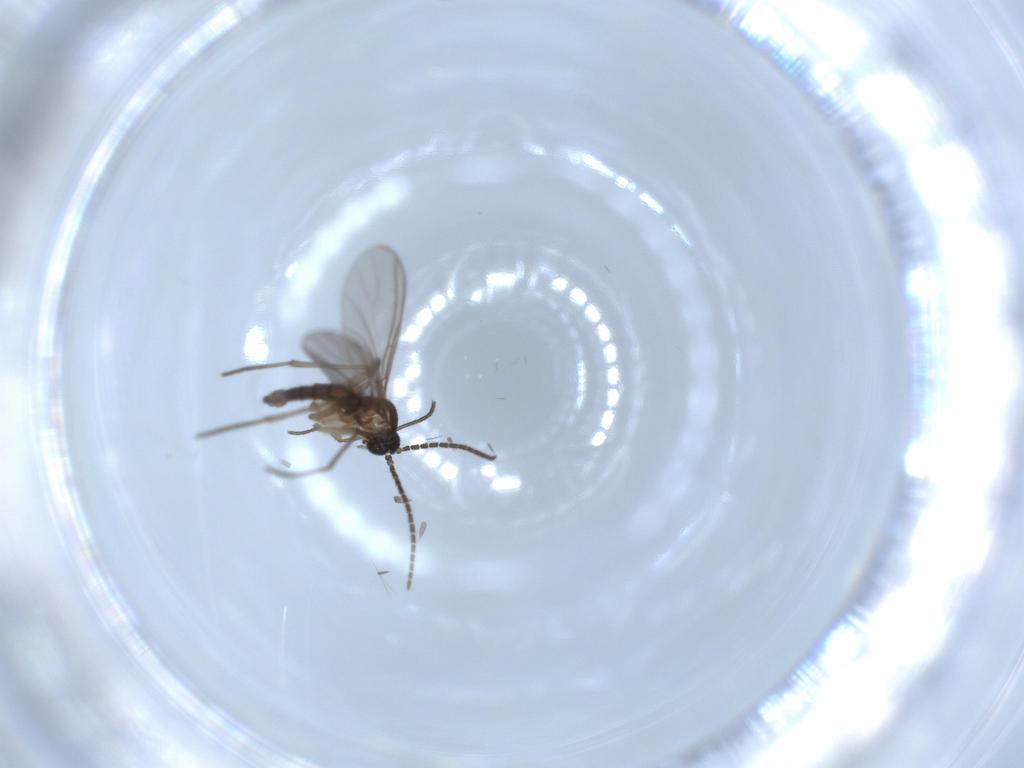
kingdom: Animalia
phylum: Arthropoda
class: Insecta
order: Diptera
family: Sciaridae
